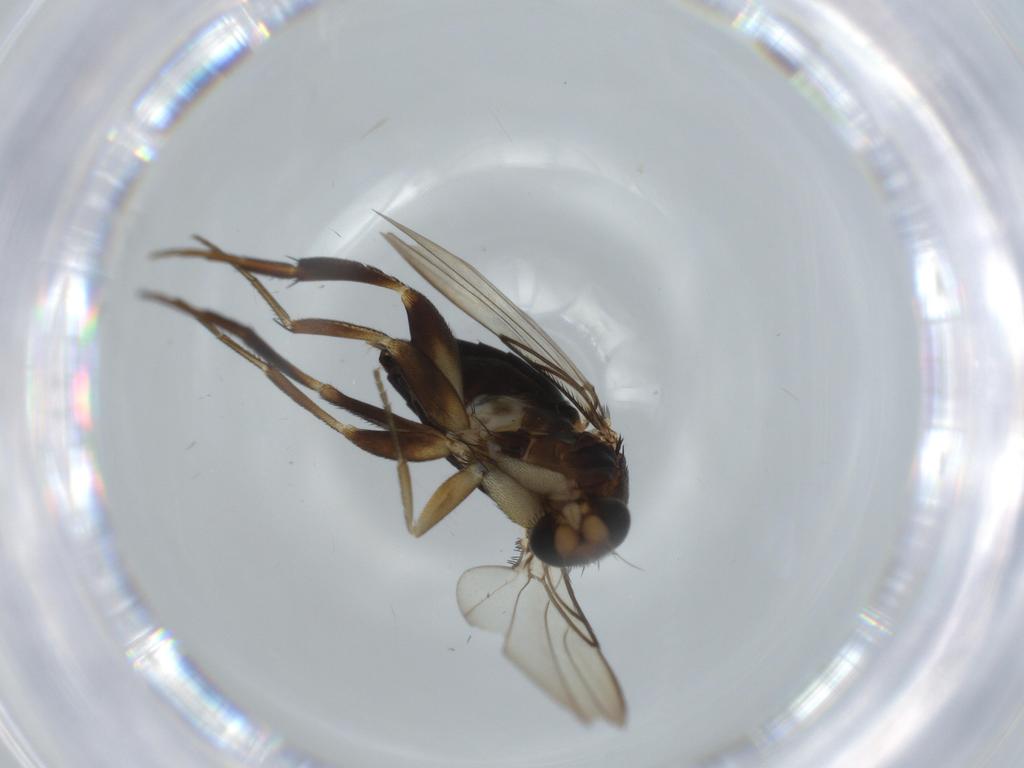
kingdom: Animalia
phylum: Arthropoda
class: Insecta
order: Diptera
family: Phoridae
